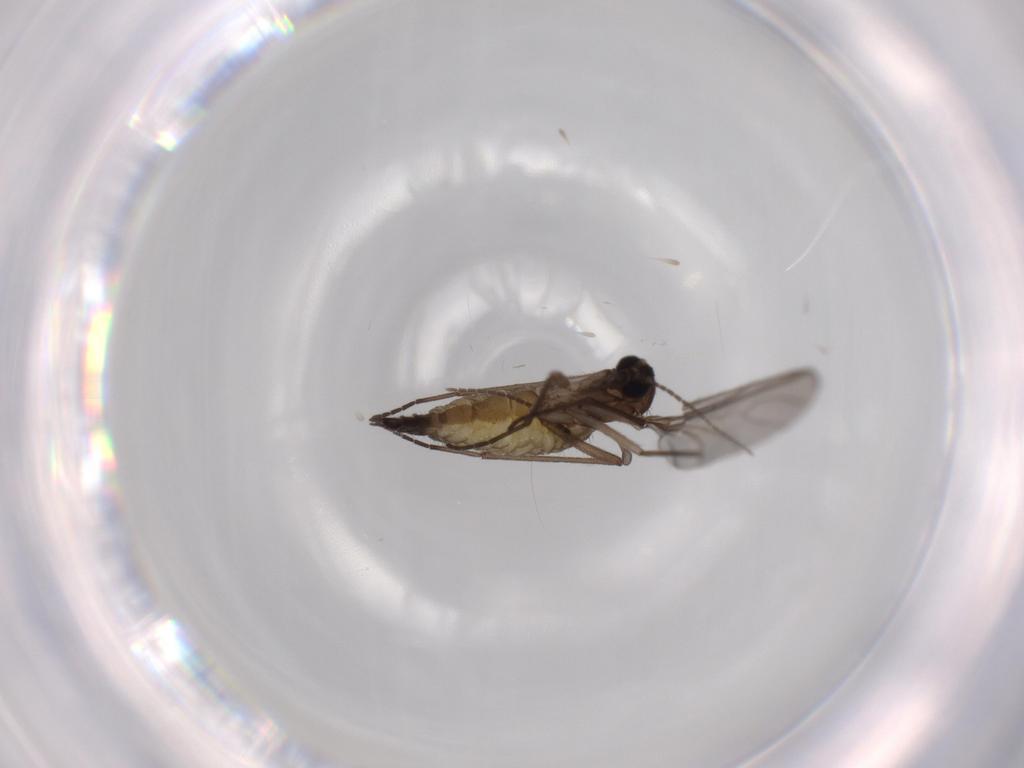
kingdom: Animalia
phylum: Arthropoda
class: Insecta
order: Diptera
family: Sciaridae
